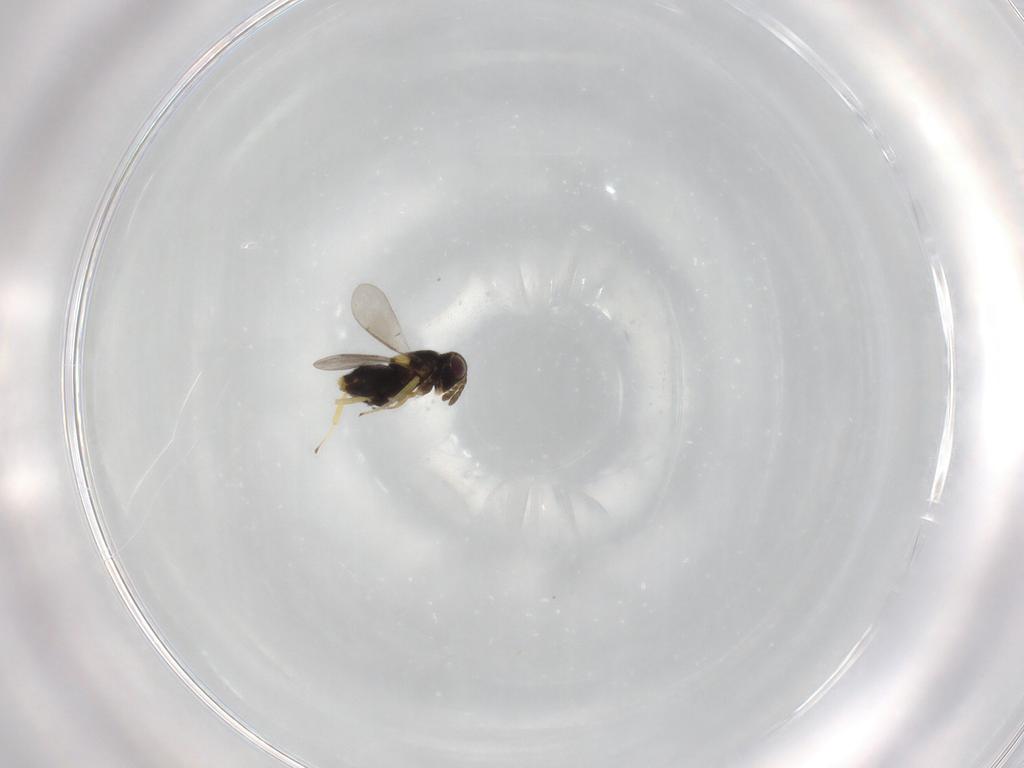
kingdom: Animalia
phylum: Arthropoda
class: Insecta
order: Hymenoptera
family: Aphelinidae
